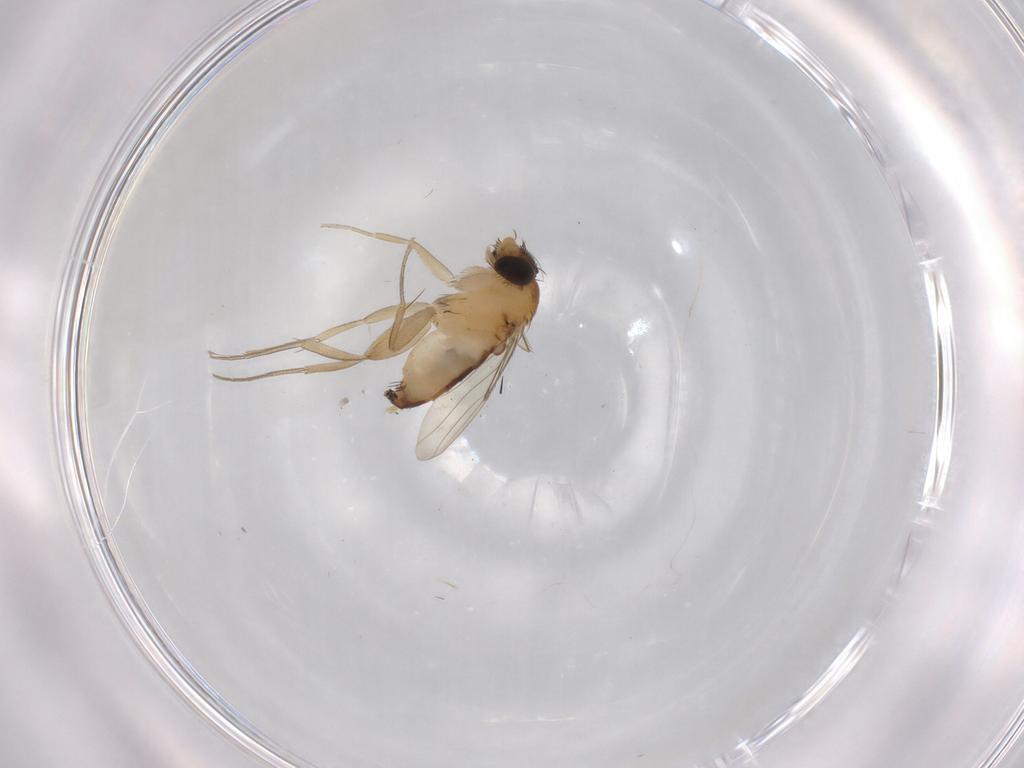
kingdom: Animalia
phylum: Arthropoda
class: Insecta
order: Diptera
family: Phoridae
